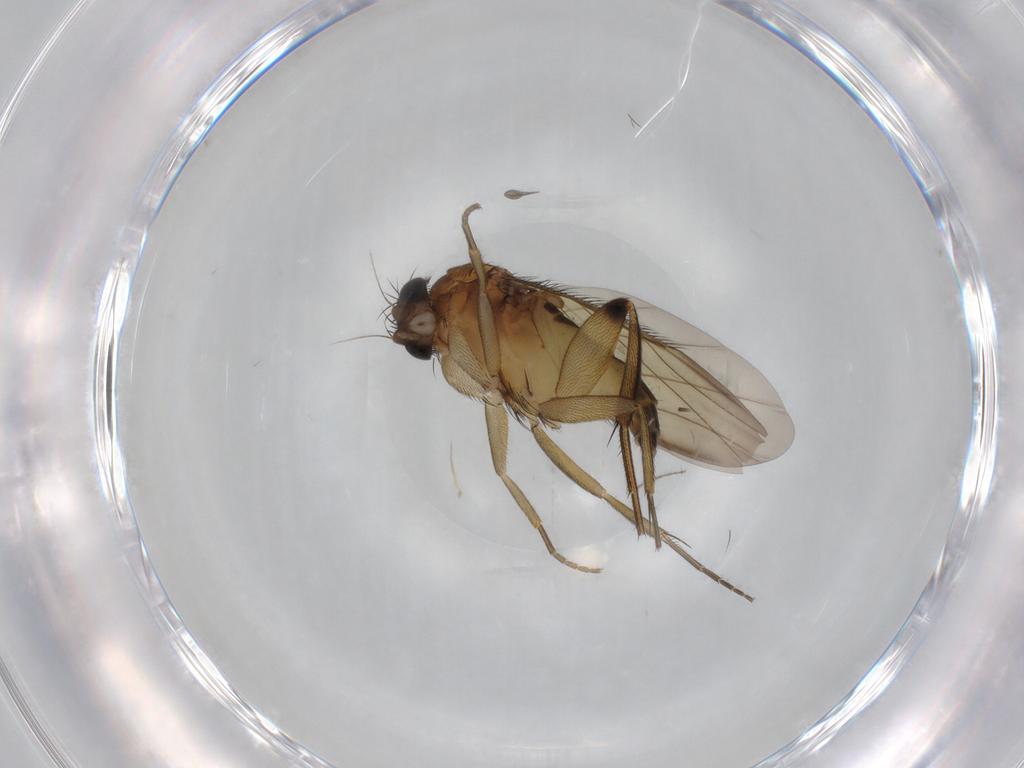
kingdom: Animalia
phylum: Arthropoda
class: Insecta
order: Diptera
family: Phoridae
